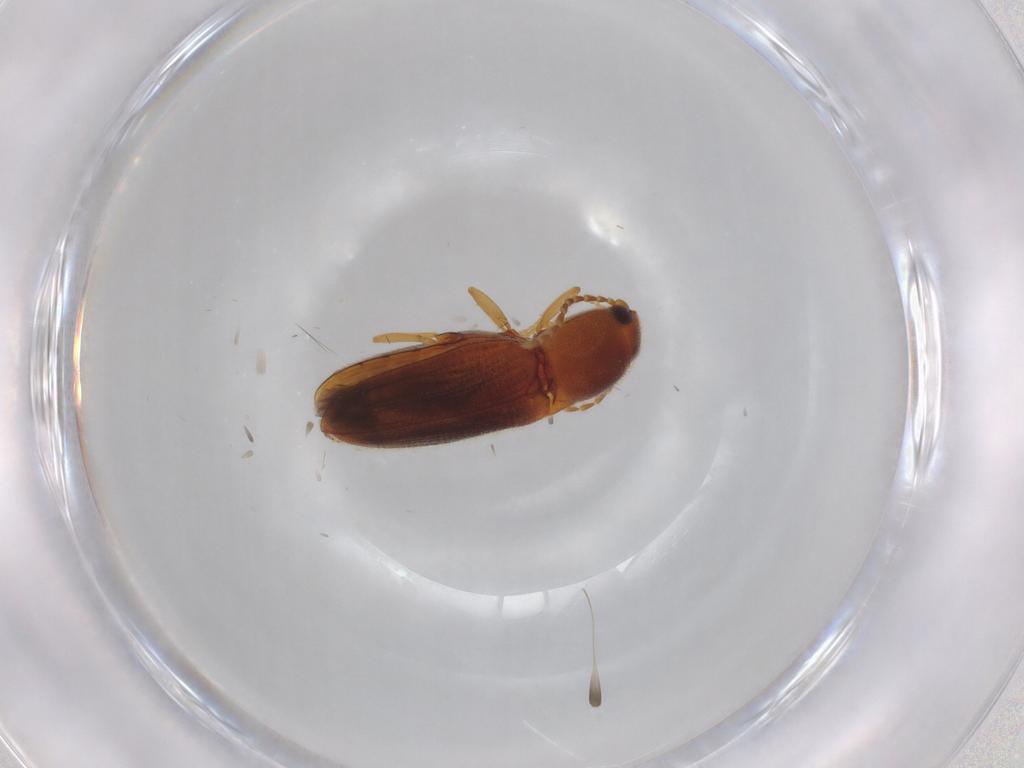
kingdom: Animalia
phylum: Arthropoda
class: Insecta
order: Coleoptera
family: Elateridae
